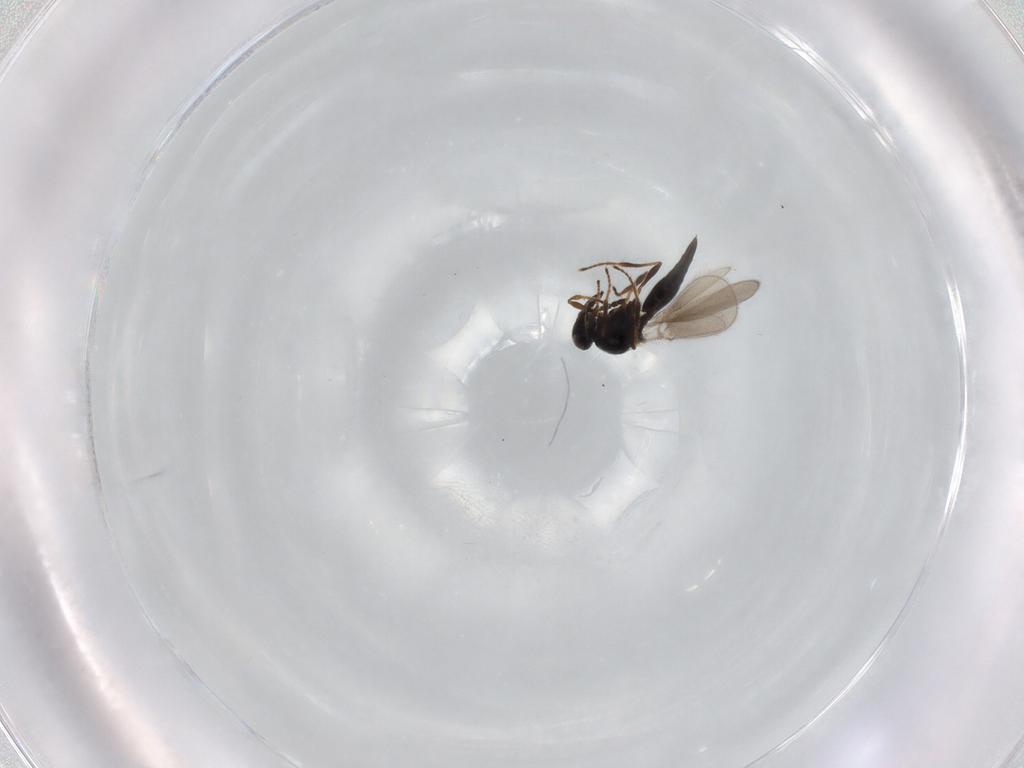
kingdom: Animalia
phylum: Arthropoda
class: Insecta
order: Hymenoptera
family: Platygastridae
